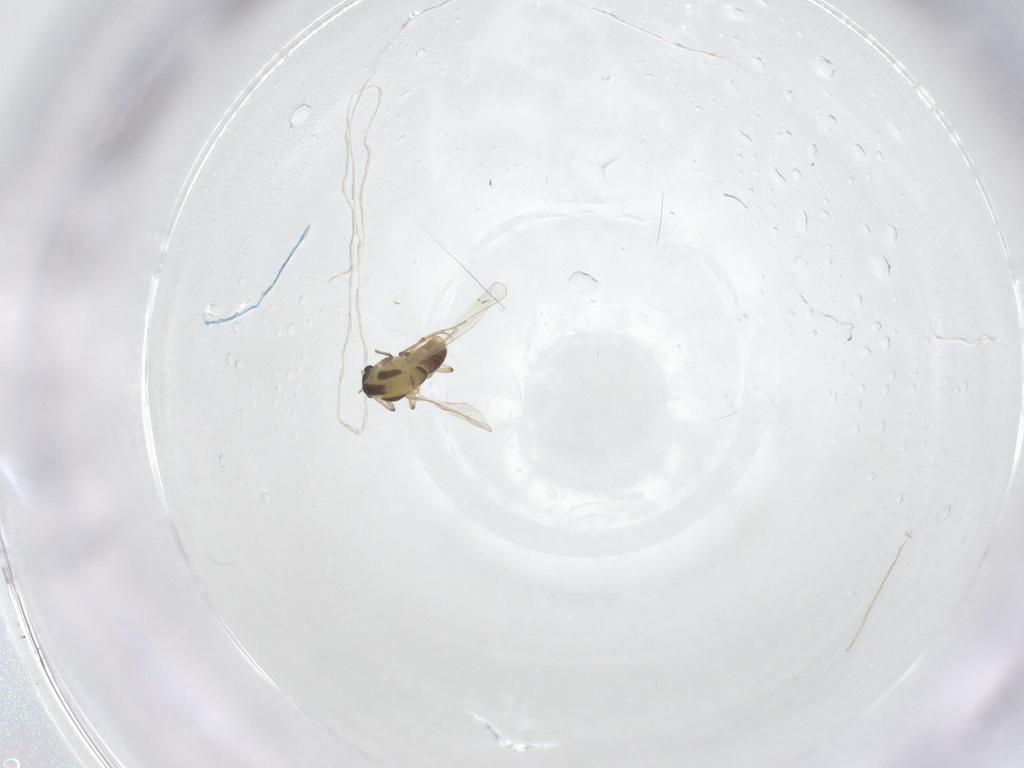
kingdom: Animalia
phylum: Arthropoda
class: Insecta
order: Diptera
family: Chironomidae
